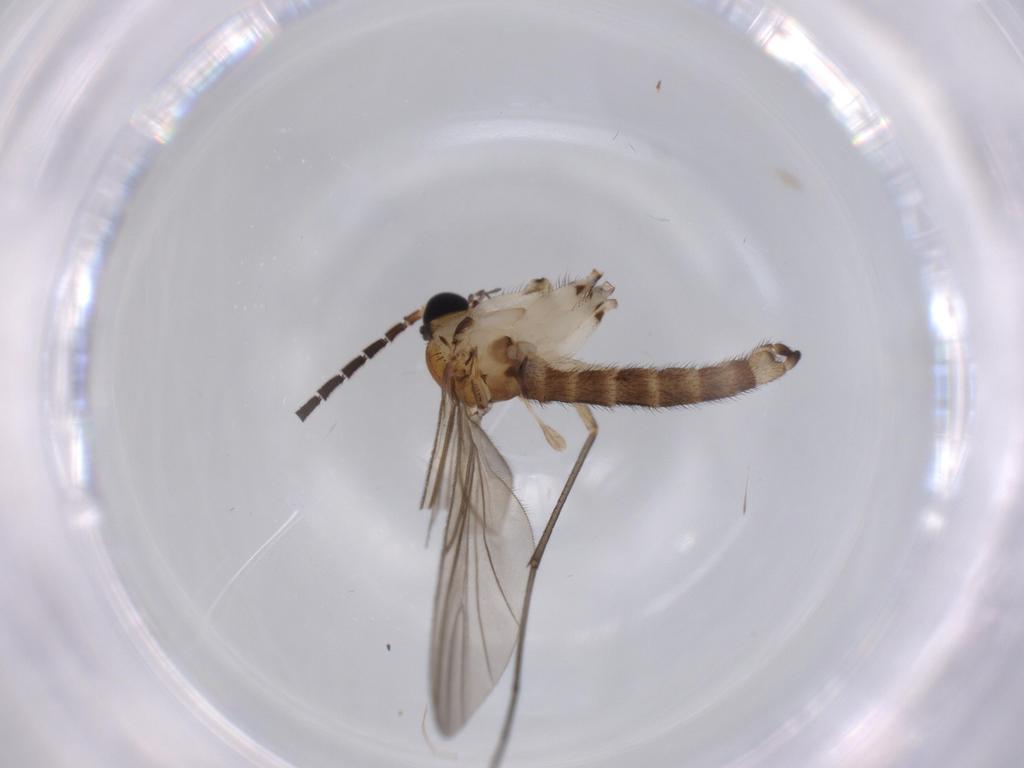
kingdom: Animalia
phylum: Arthropoda
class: Insecta
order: Diptera
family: Sciaridae
